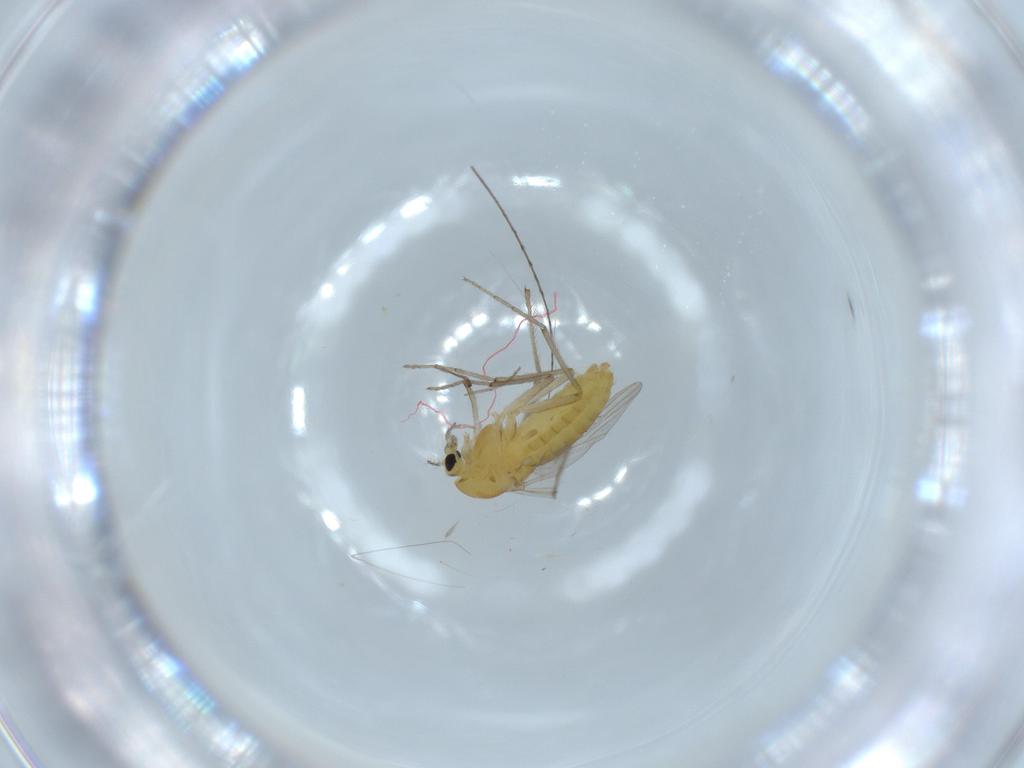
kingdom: Animalia
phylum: Arthropoda
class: Insecta
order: Diptera
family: Chironomidae
